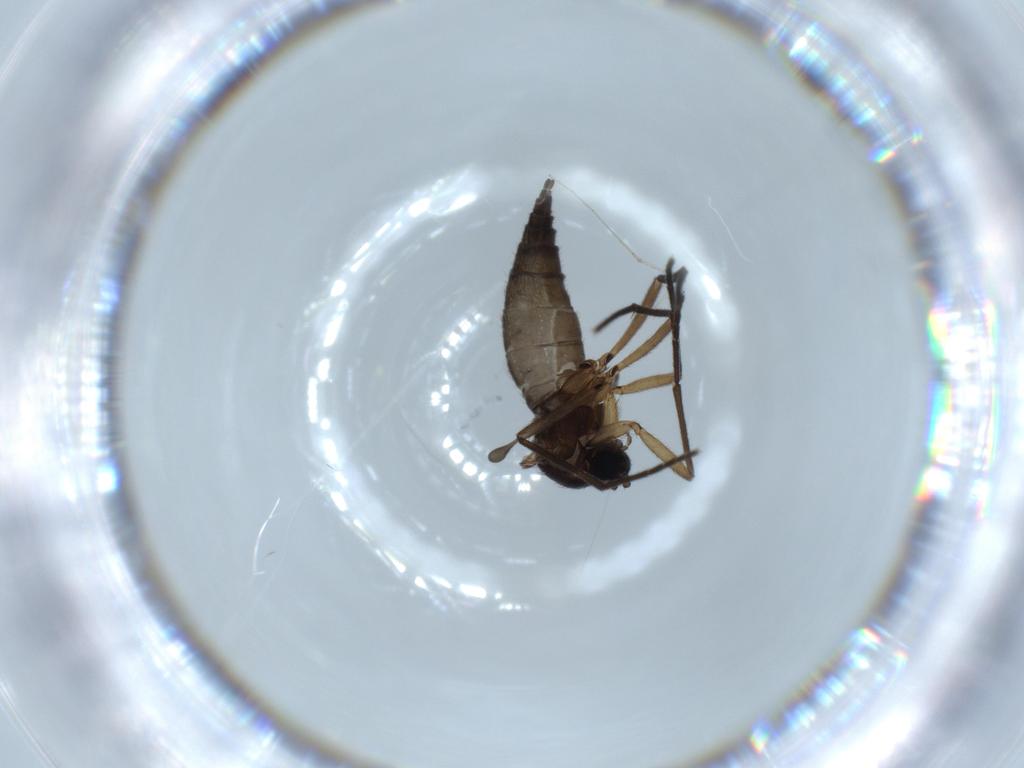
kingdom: Animalia
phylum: Arthropoda
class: Insecta
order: Diptera
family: Sciaridae
